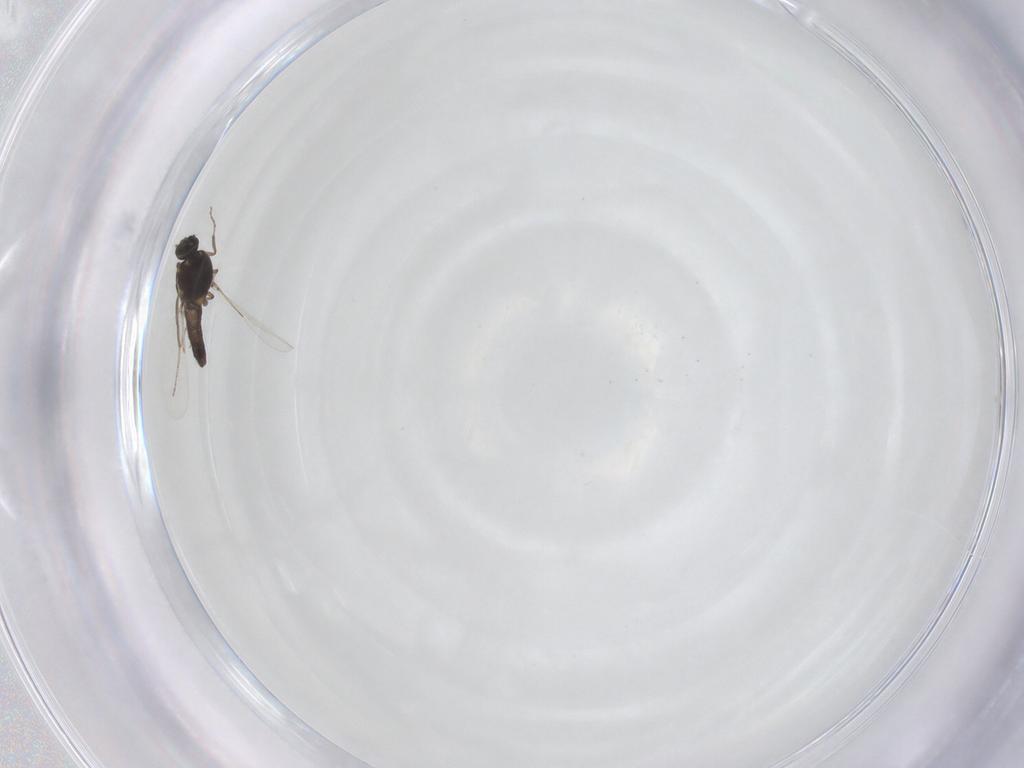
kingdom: Animalia
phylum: Arthropoda
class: Insecta
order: Diptera
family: Ceratopogonidae
